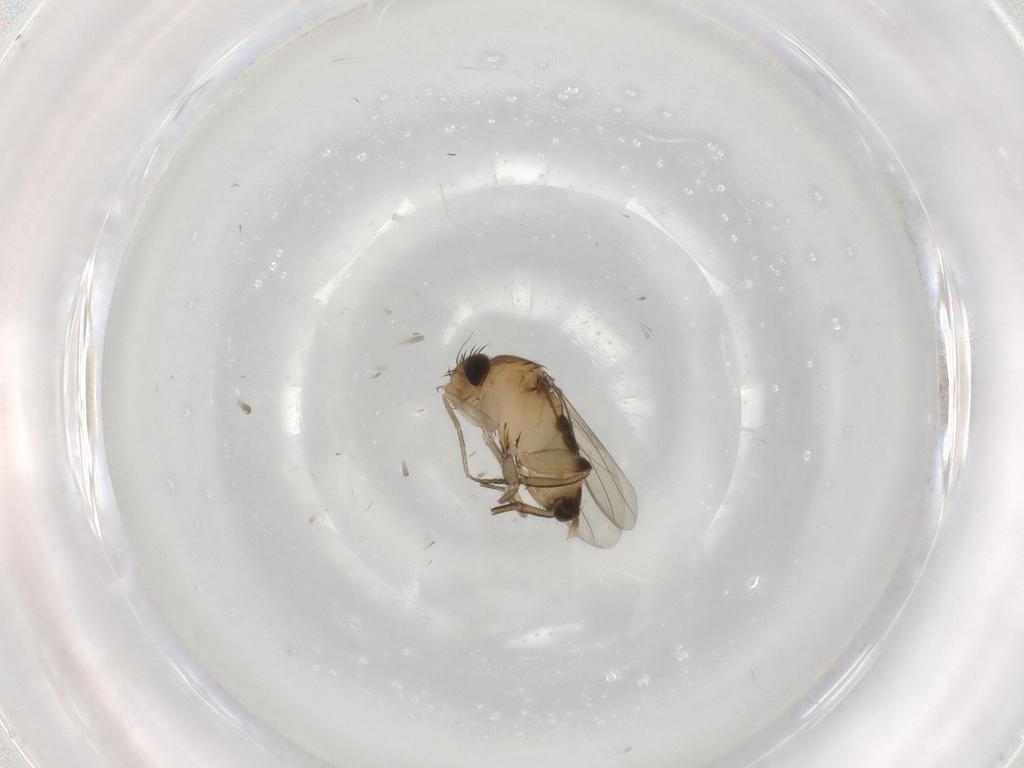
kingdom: Animalia
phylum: Arthropoda
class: Insecta
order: Diptera
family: Phoridae
